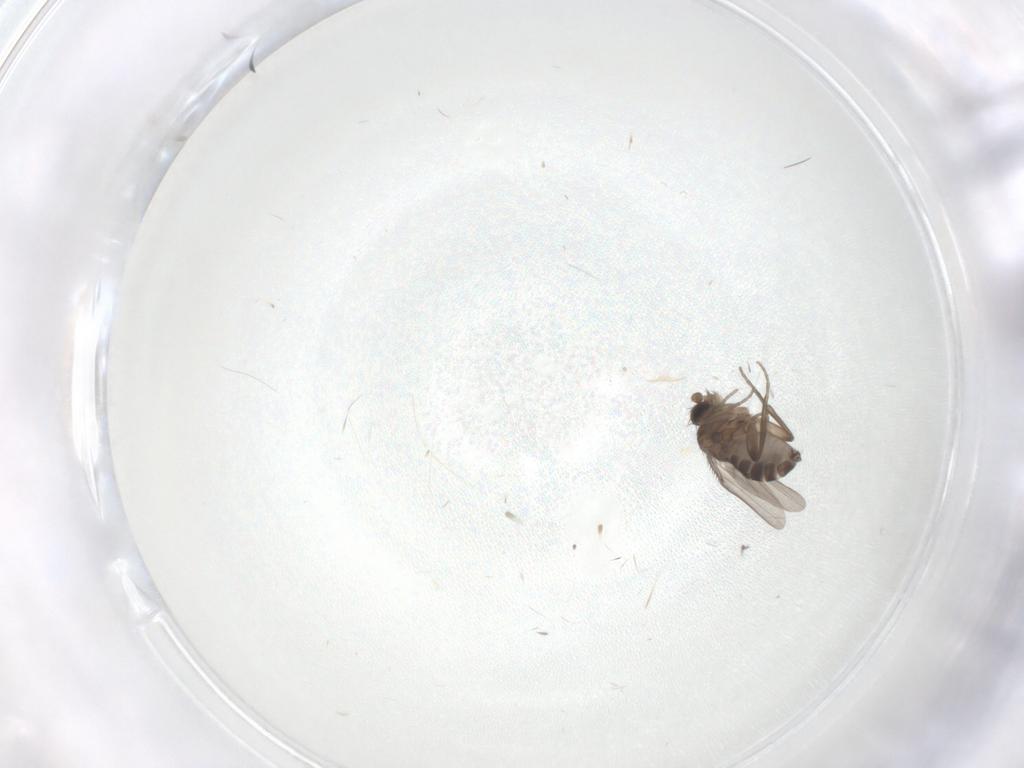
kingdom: Animalia
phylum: Arthropoda
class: Insecta
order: Diptera
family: Phoridae
